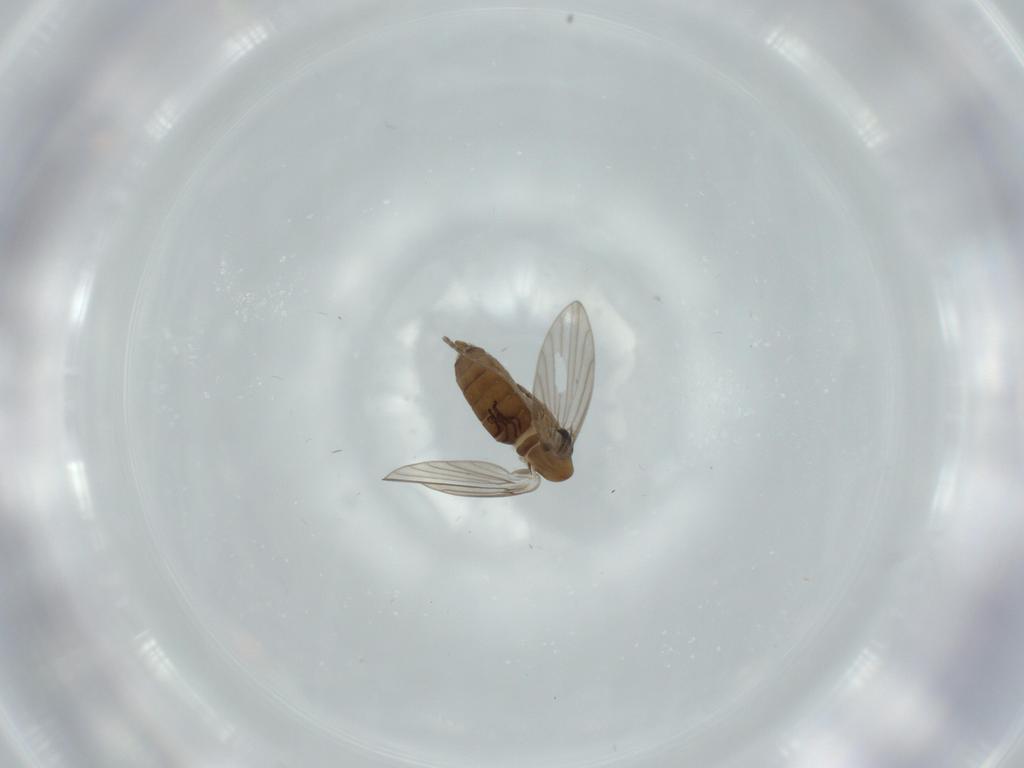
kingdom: Animalia
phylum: Arthropoda
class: Insecta
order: Diptera
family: Psychodidae
